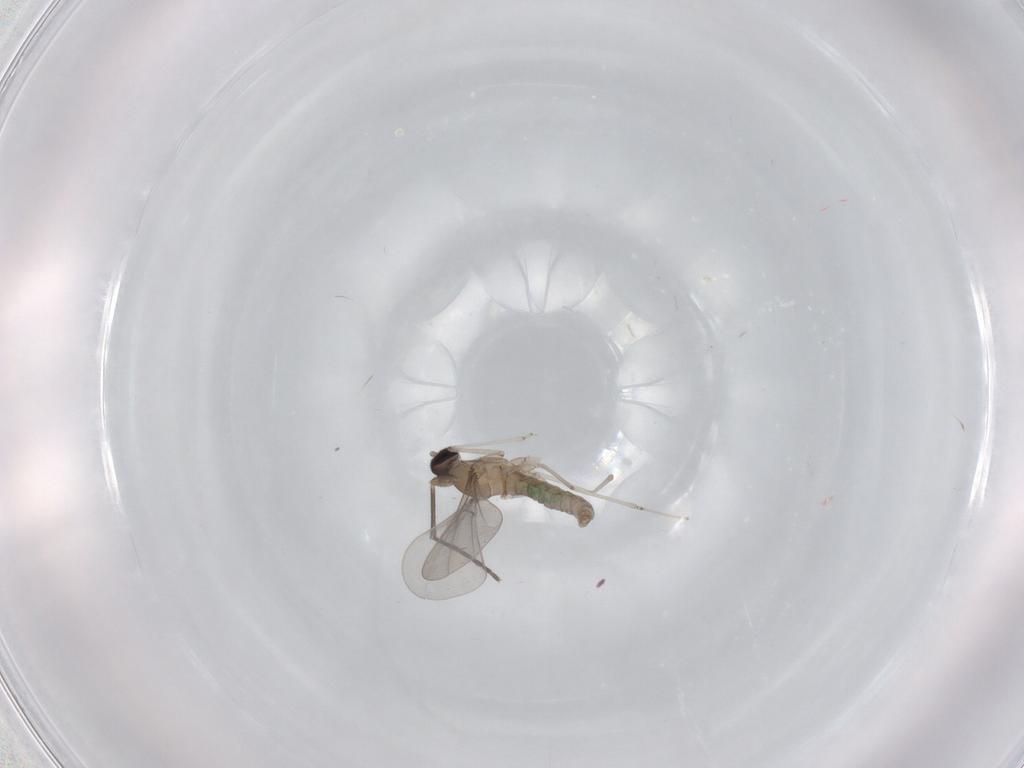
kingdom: Animalia
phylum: Arthropoda
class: Insecta
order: Diptera
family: Cecidomyiidae
